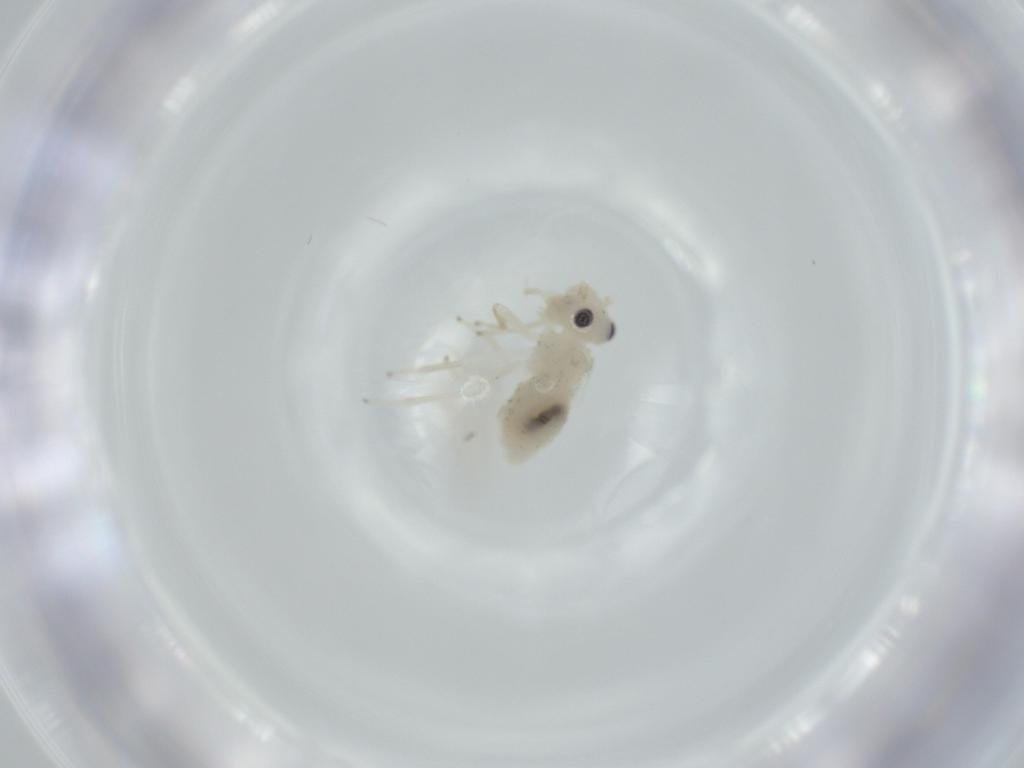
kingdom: Animalia
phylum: Arthropoda
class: Insecta
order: Psocodea
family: Caeciliusidae
